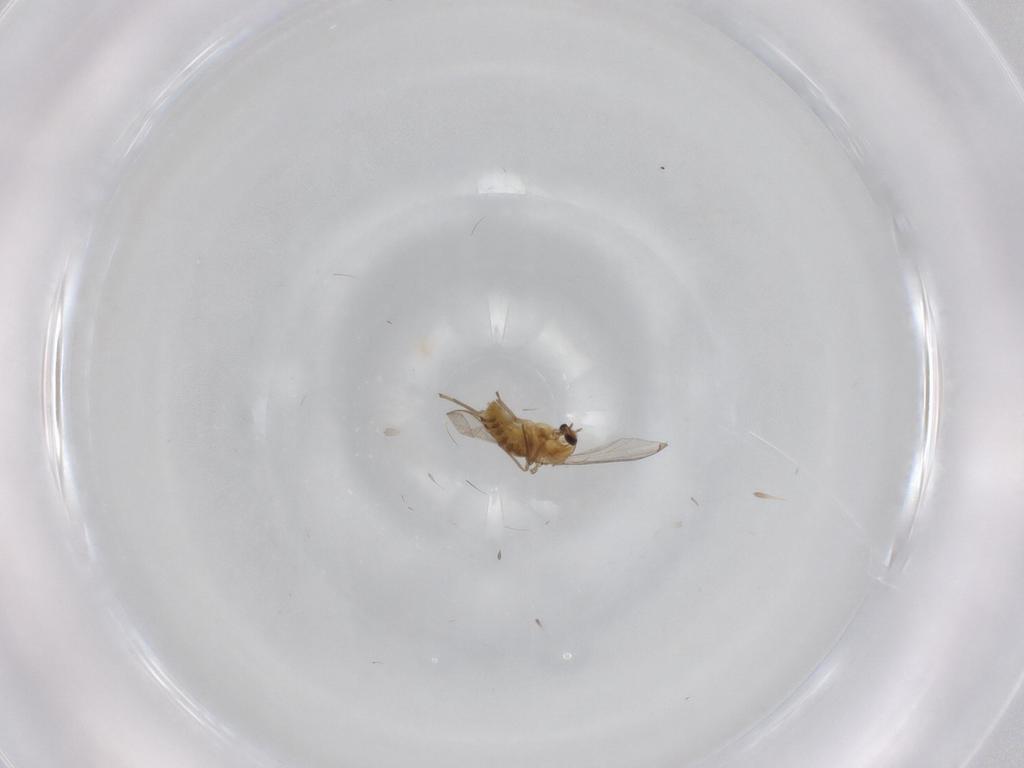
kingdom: Animalia
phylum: Arthropoda
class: Insecta
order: Diptera
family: Chironomidae
